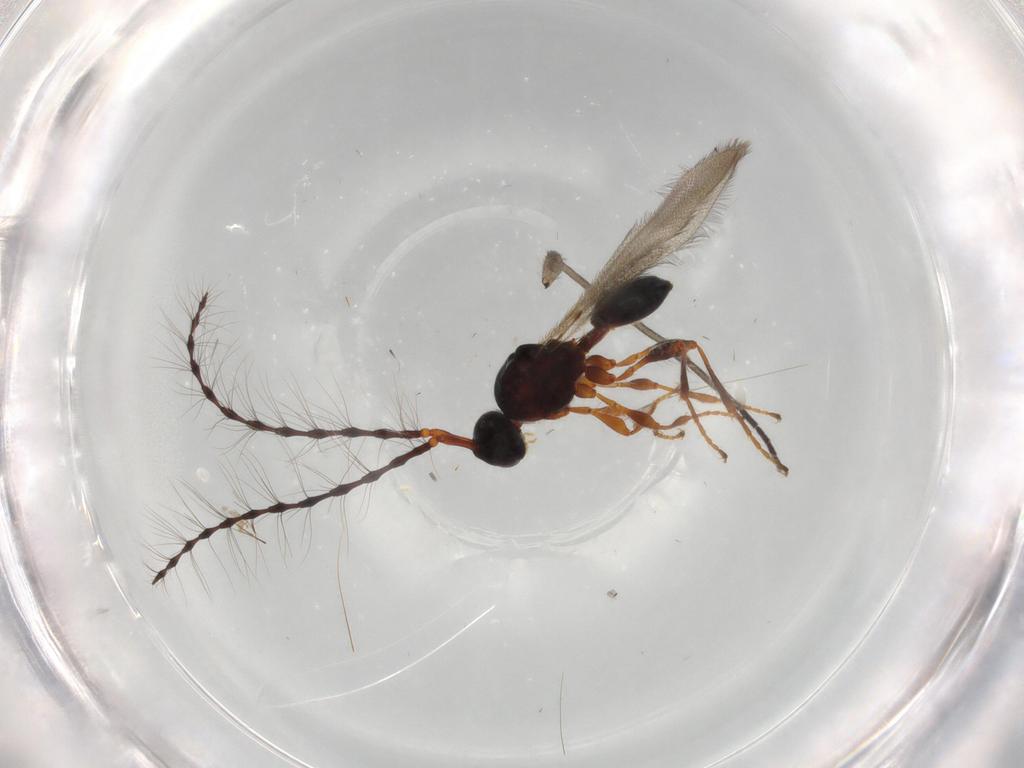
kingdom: Animalia
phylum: Arthropoda
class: Insecta
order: Hymenoptera
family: Diapriidae
